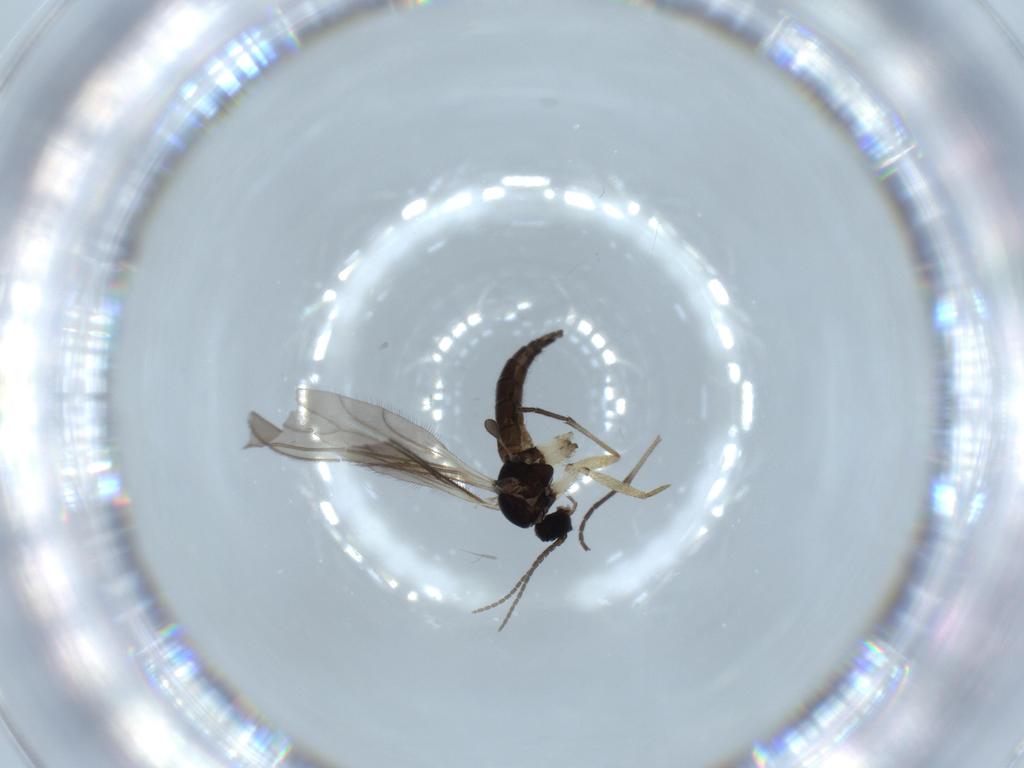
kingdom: Animalia
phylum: Arthropoda
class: Insecta
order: Diptera
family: Sciaridae
